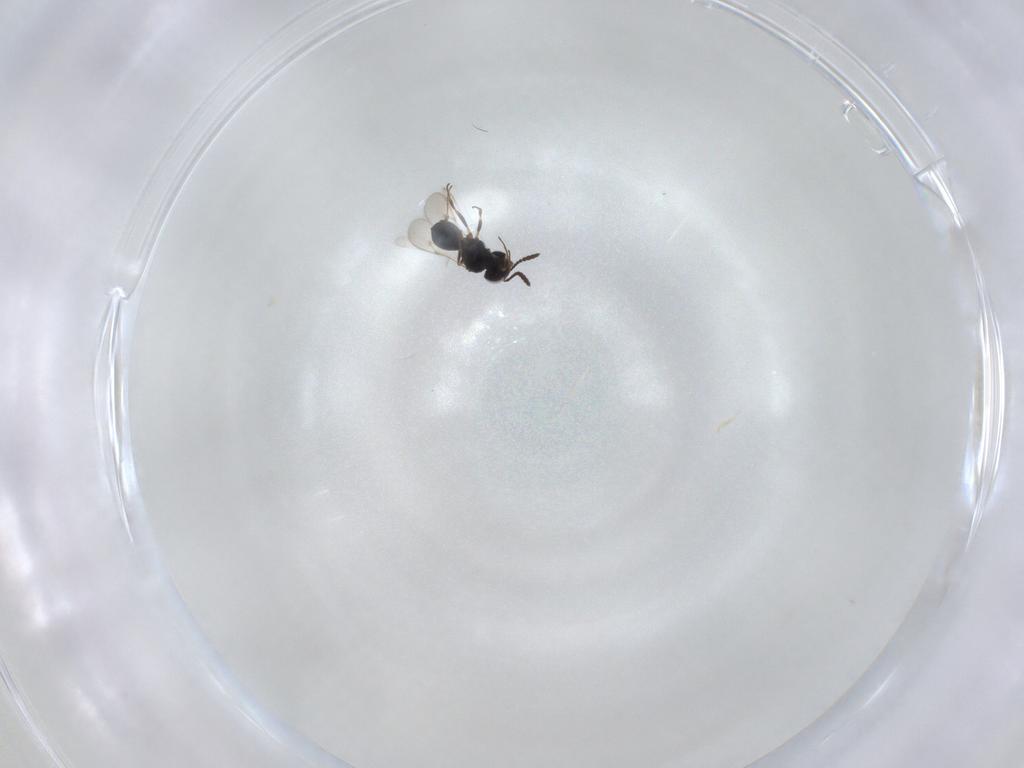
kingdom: Animalia
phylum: Arthropoda
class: Insecta
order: Hymenoptera
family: Scelionidae
